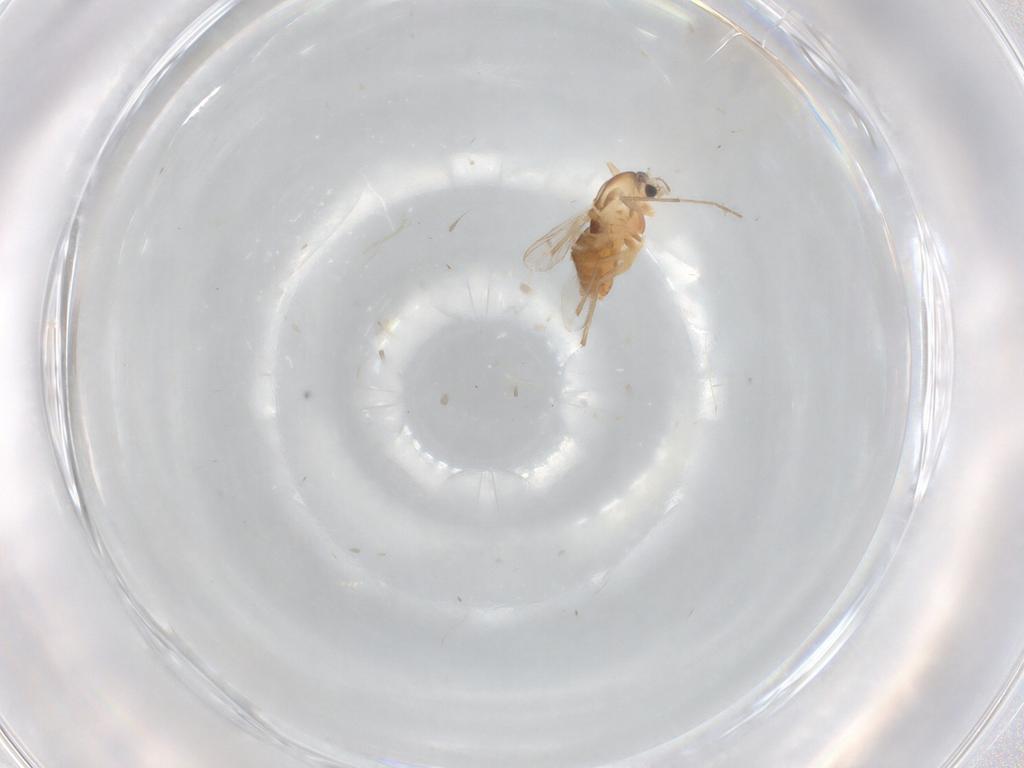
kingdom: Animalia
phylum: Arthropoda
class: Insecta
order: Diptera
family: Chironomidae
